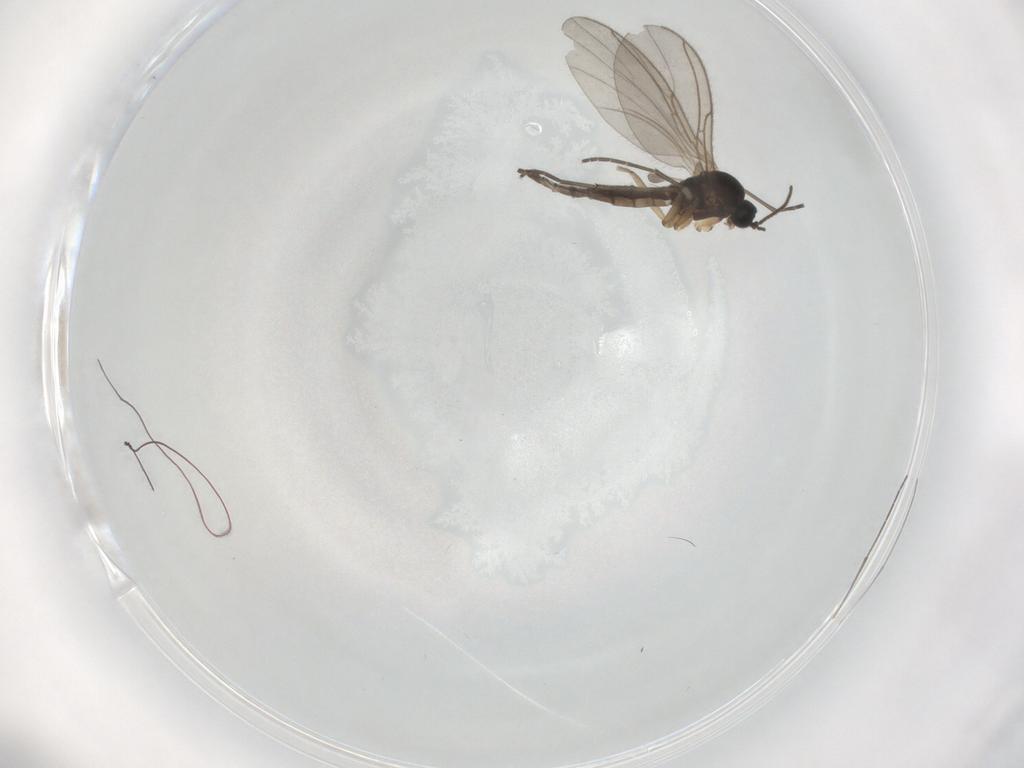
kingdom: Animalia
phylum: Arthropoda
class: Insecta
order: Diptera
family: Sciaridae
